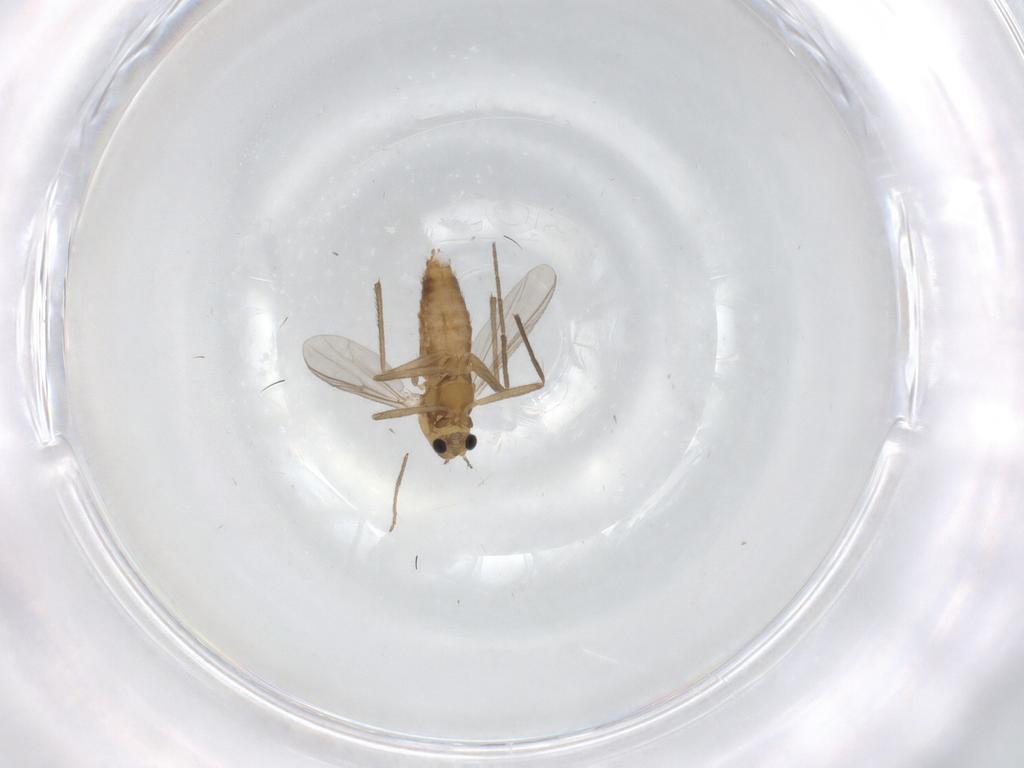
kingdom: Animalia
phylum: Arthropoda
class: Insecta
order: Diptera
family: Chironomidae
